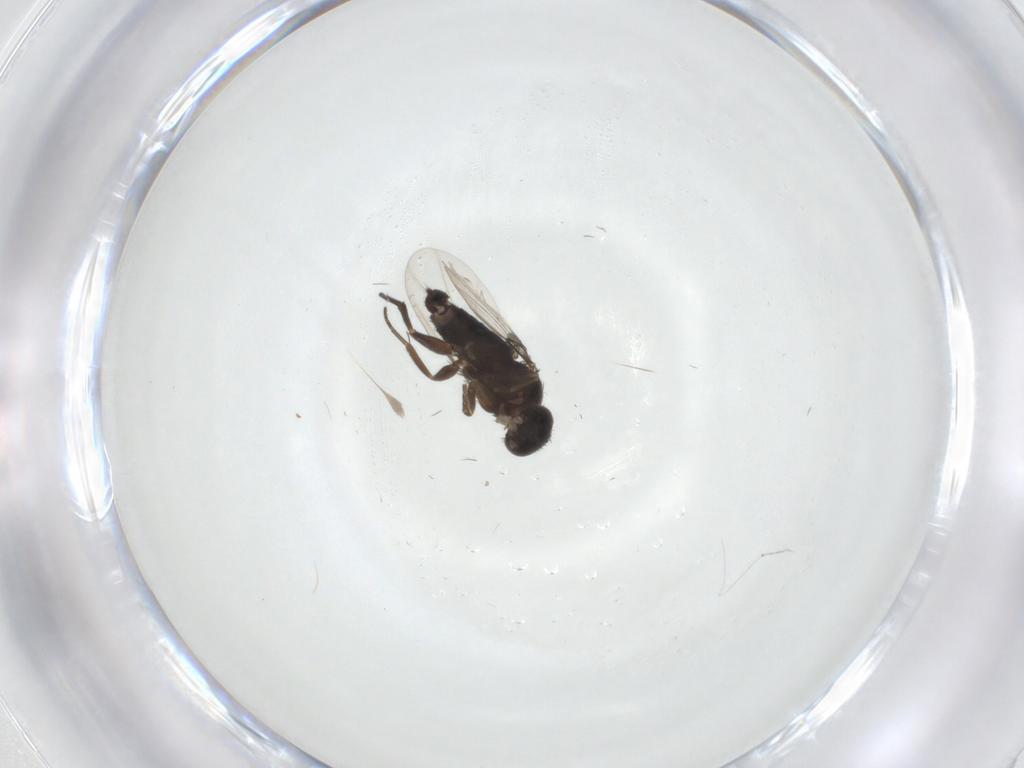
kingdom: Animalia
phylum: Arthropoda
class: Insecta
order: Diptera
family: Cecidomyiidae
